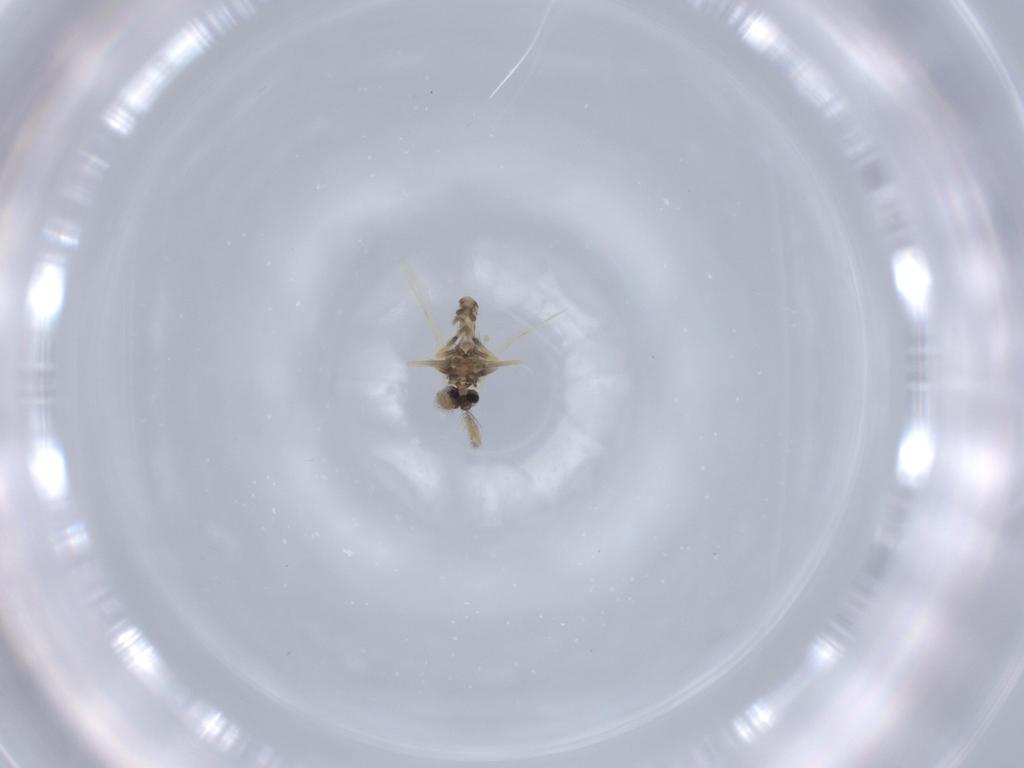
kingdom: Animalia
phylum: Arthropoda
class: Insecta
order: Diptera
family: Ceratopogonidae
